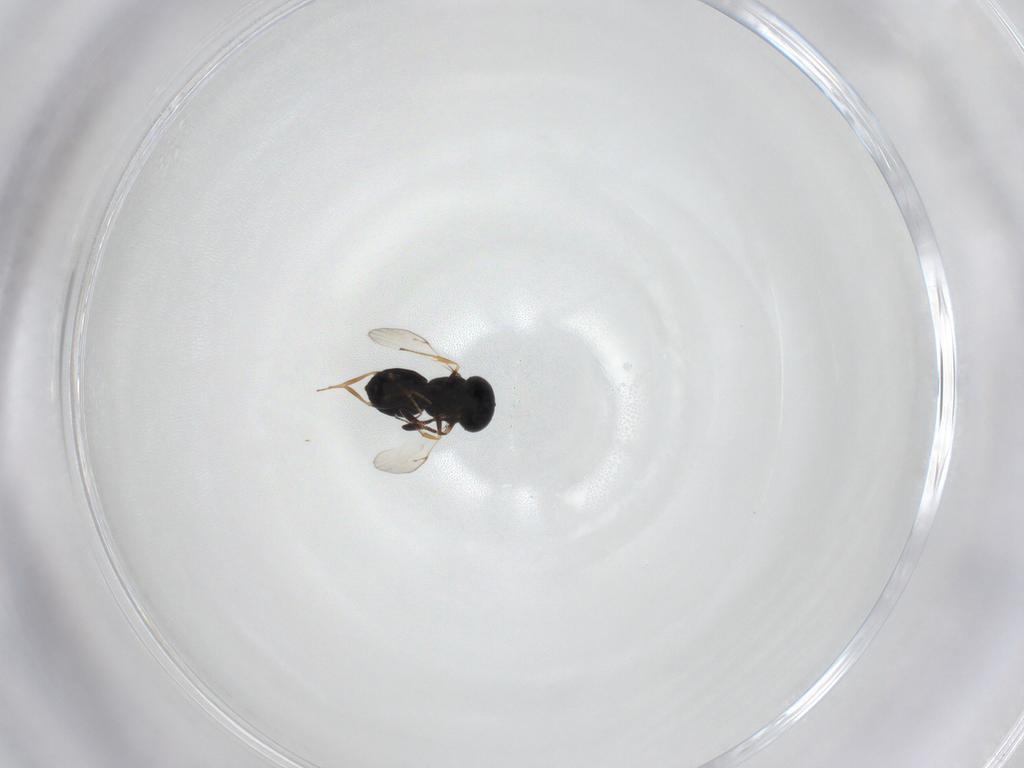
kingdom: Animalia
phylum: Arthropoda
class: Insecta
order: Hymenoptera
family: Scelionidae
